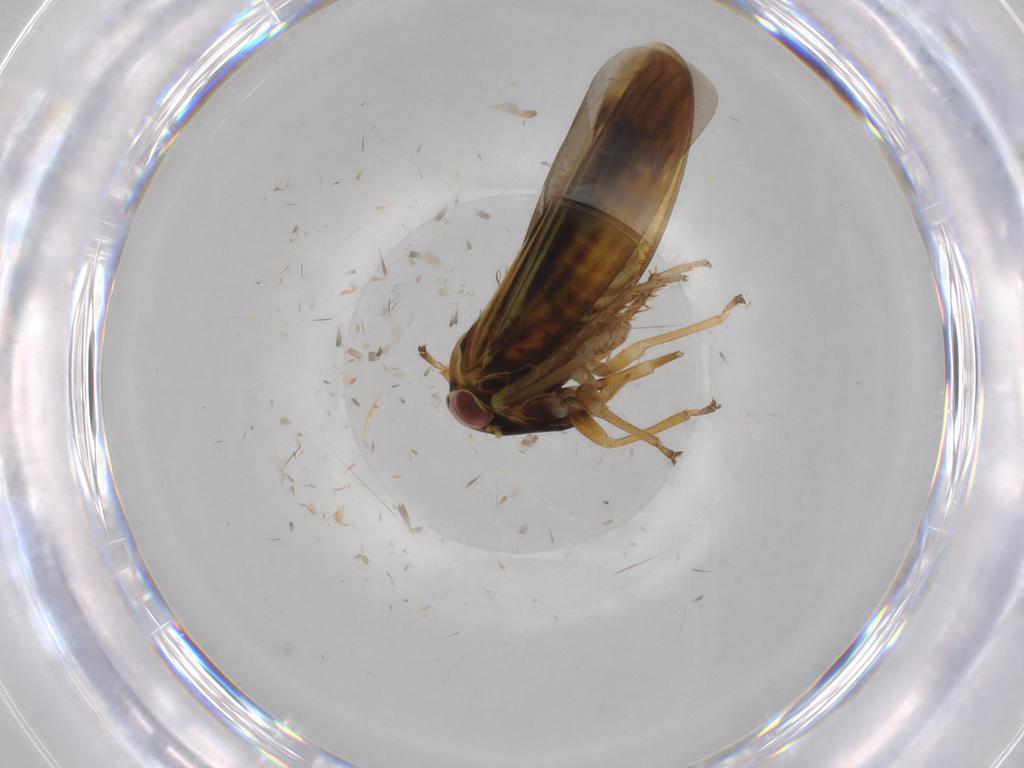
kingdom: Animalia
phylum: Arthropoda
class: Insecta
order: Hemiptera
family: Cicadellidae
